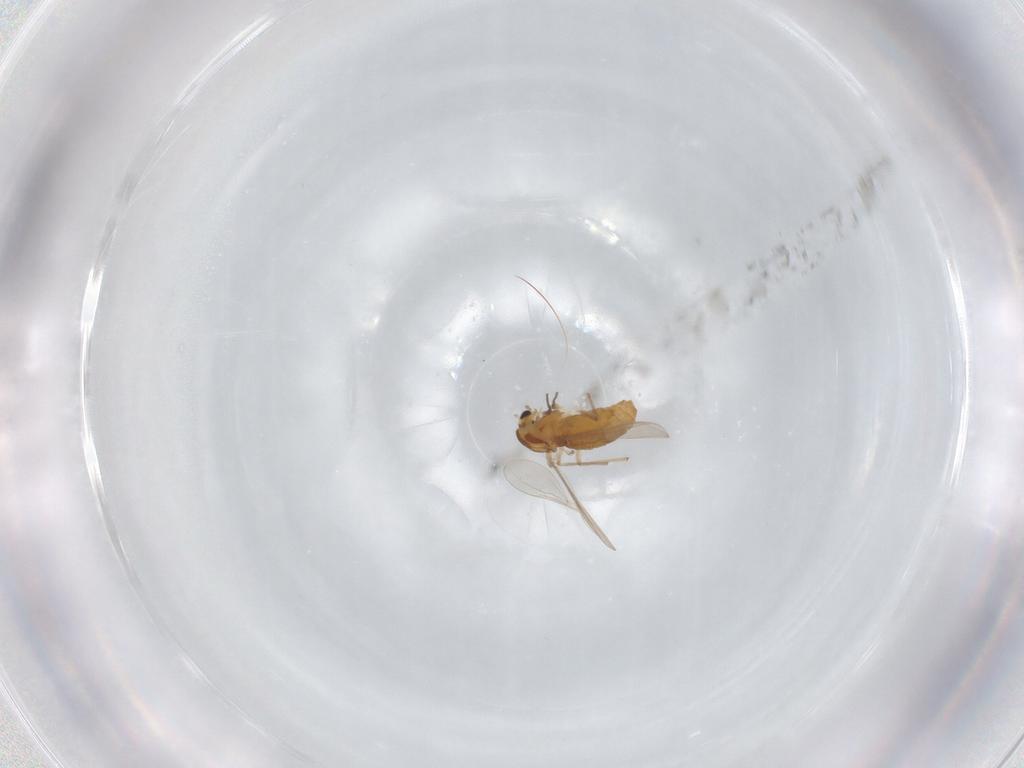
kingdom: Animalia
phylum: Arthropoda
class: Insecta
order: Diptera
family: Chironomidae
